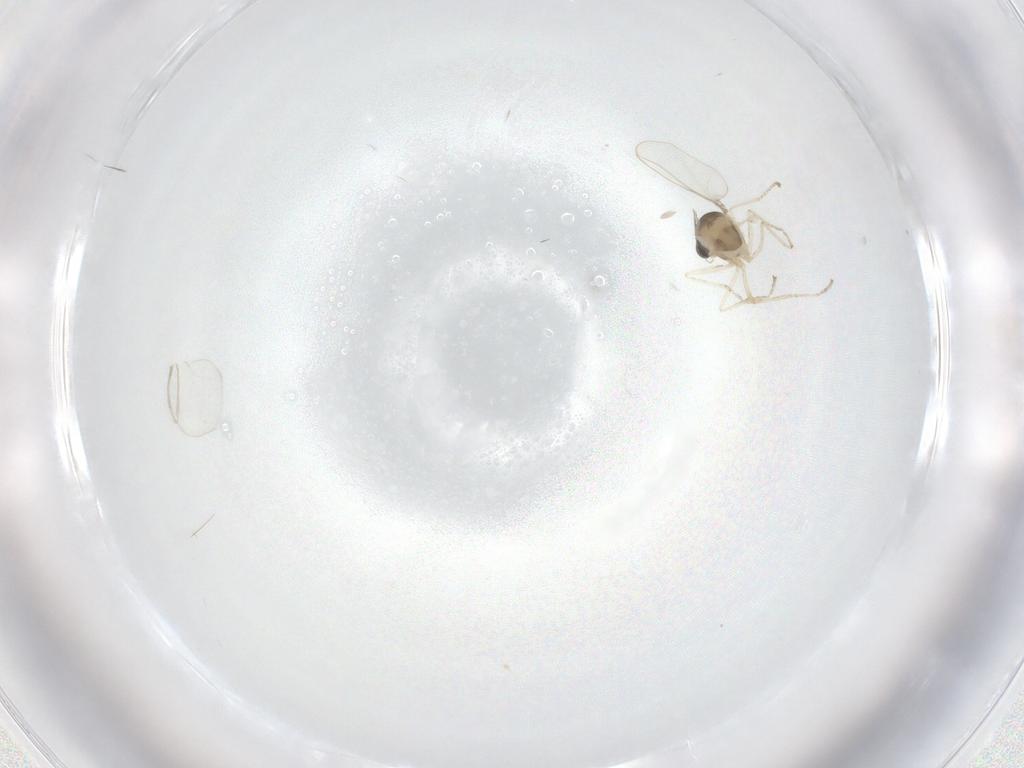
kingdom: Animalia
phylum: Arthropoda
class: Insecta
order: Diptera
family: Cecidomyiidae
